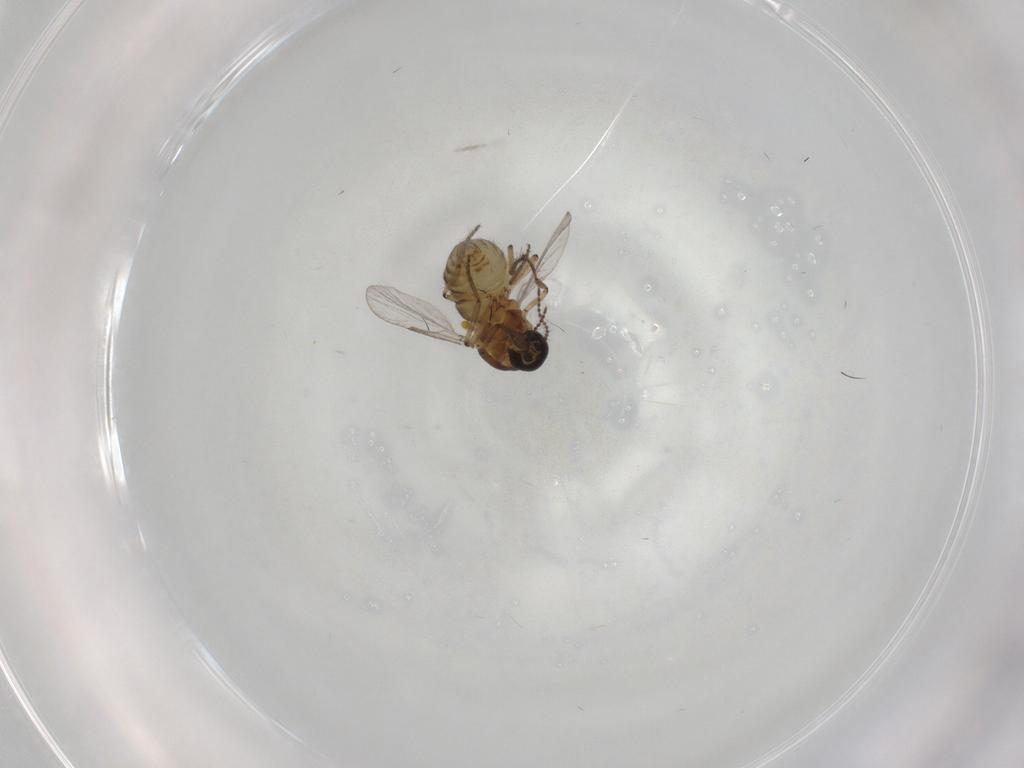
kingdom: Animalia
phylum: Arthropoda
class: Insecta
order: Diptera
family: Ceratopogonidae
